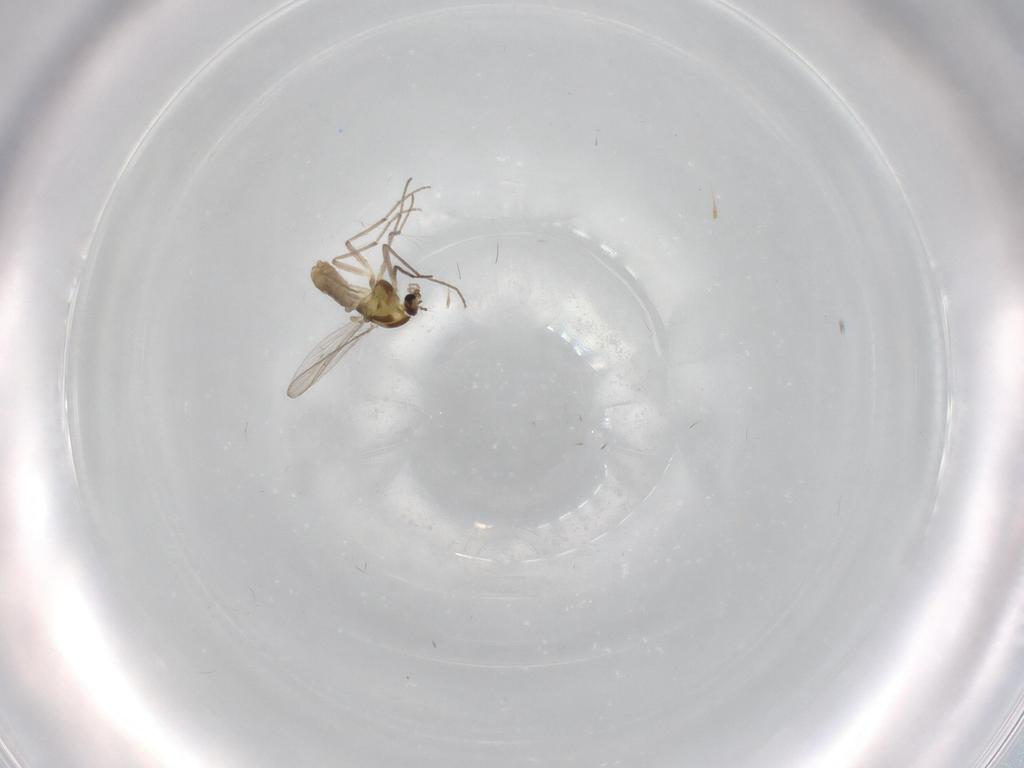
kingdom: Animalia
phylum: Arthropoda
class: Insecta
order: Diptera
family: Chironomidae
